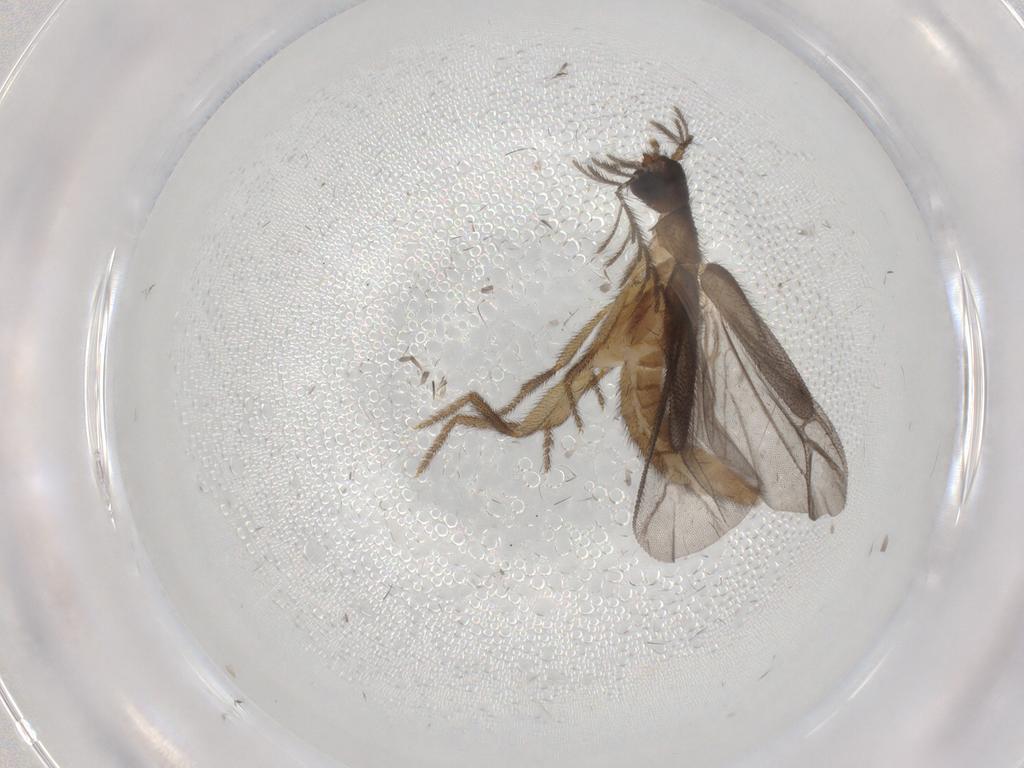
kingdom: Animalia
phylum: Arthropoda
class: Insecta
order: Coleoptera
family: Phengodidae
